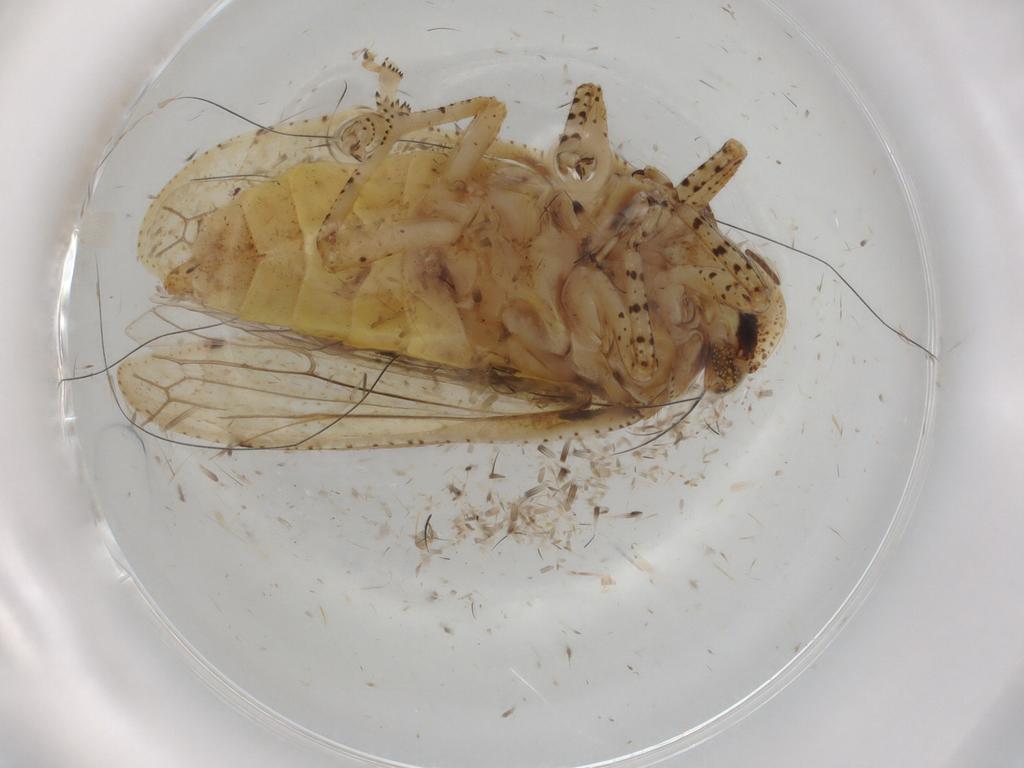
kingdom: Animalia
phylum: Arthropoda
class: Insecta
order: Hemiptera
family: Tettigometridae
